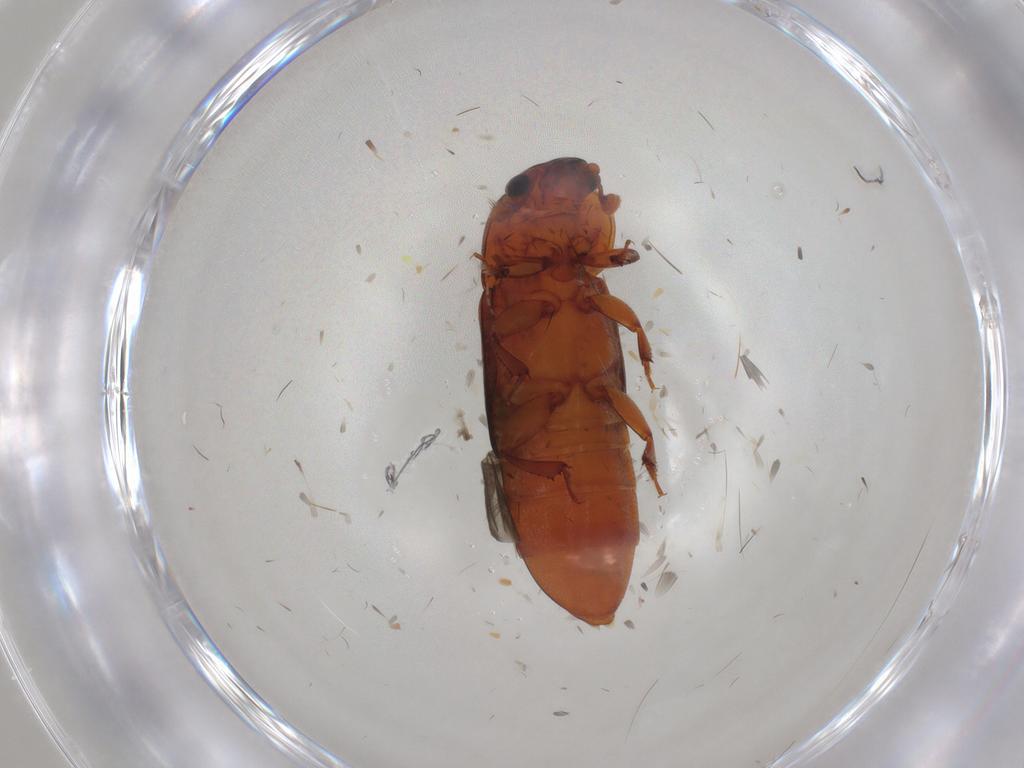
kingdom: Animalia
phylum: Arthropoda
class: Insecta
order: Coleoptera
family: Nitidulidae
